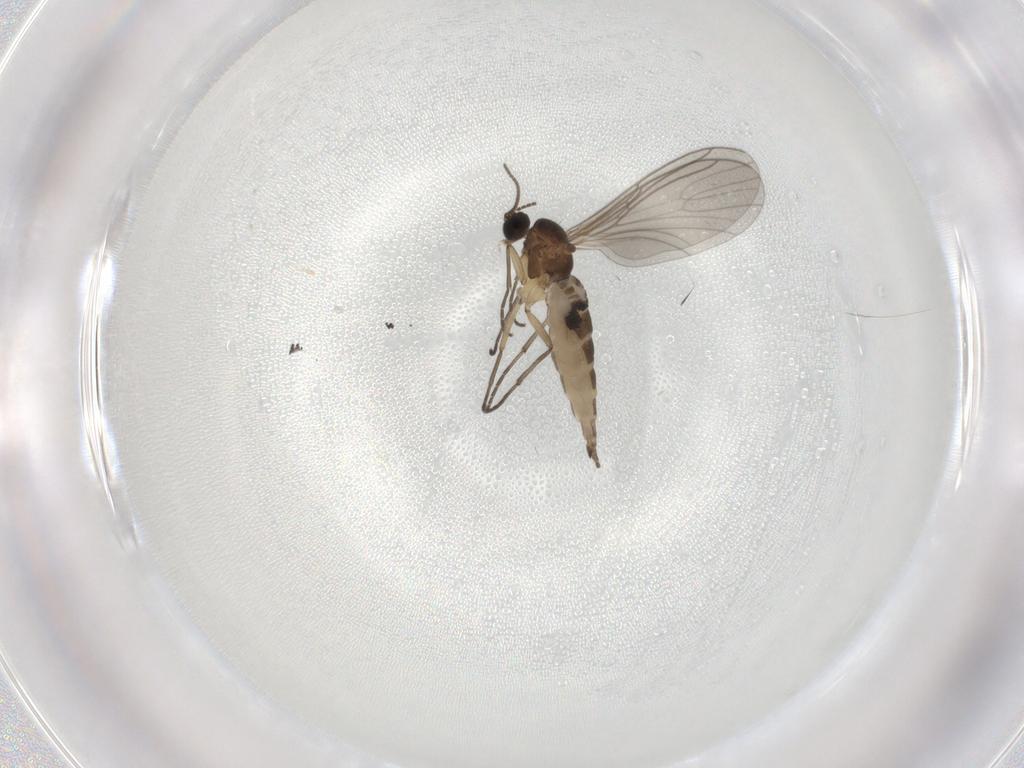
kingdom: Animalia
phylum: Arthropoda
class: Insecta
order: Diptera
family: Sciaridae
